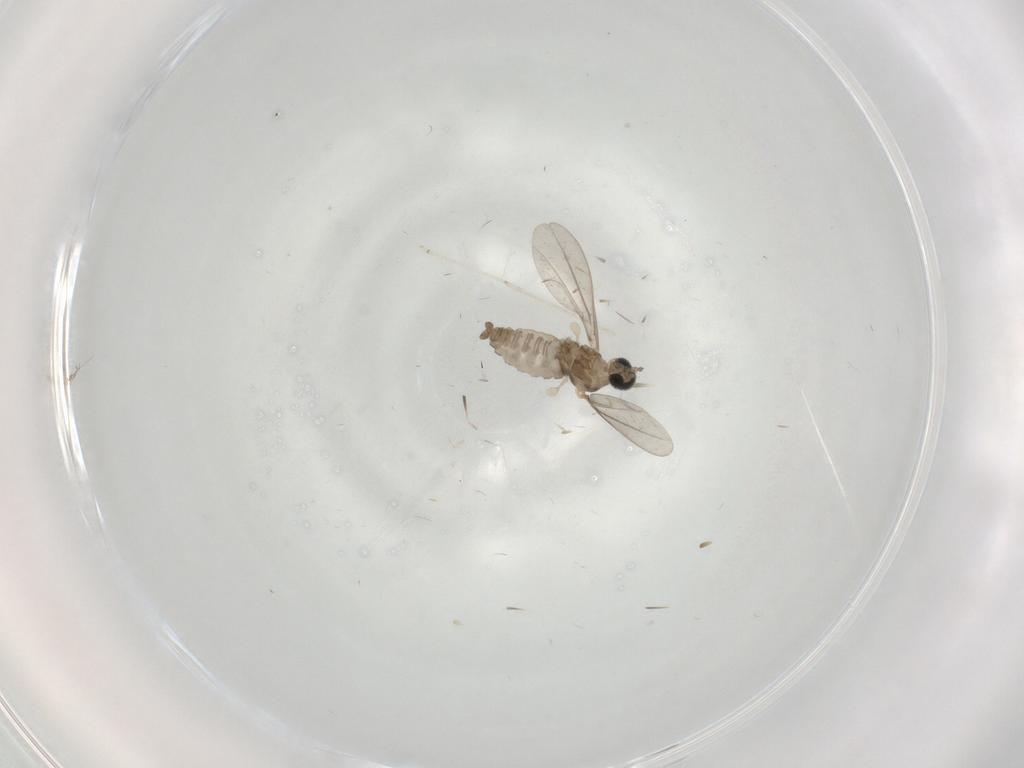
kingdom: Animalia
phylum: Arthropoda
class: Insecta
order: Diptera
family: Cecidomyiidae
